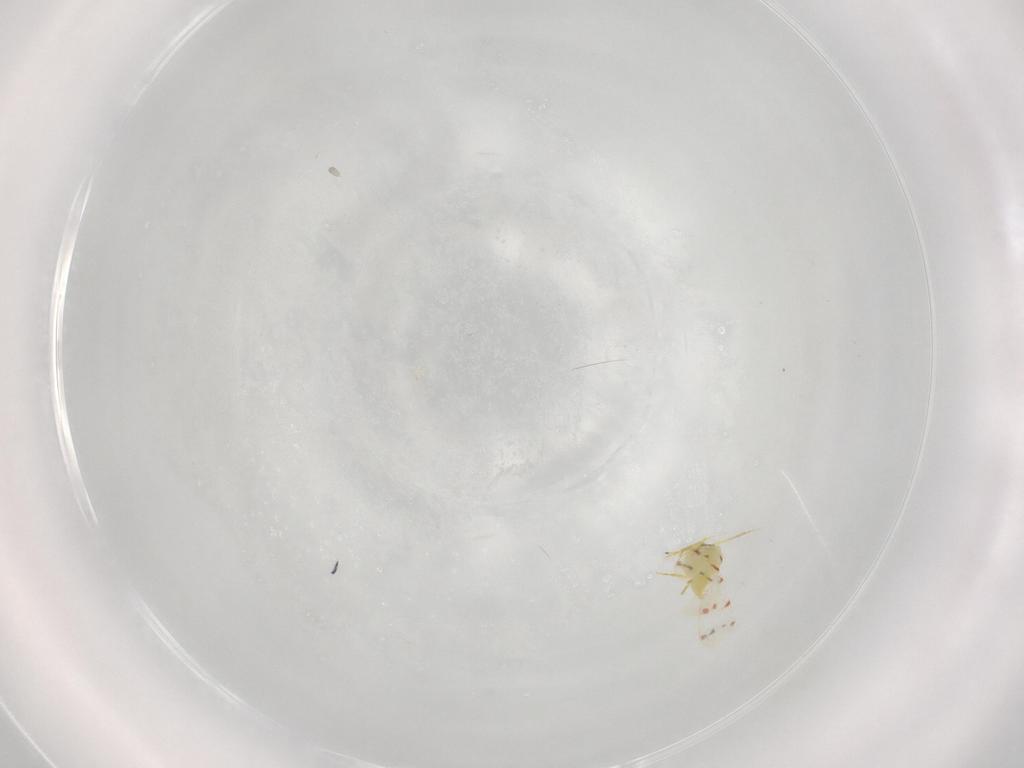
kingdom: Animalia
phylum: Arthropoda
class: Insecta
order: Hemiptera
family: Aleyrodidae
